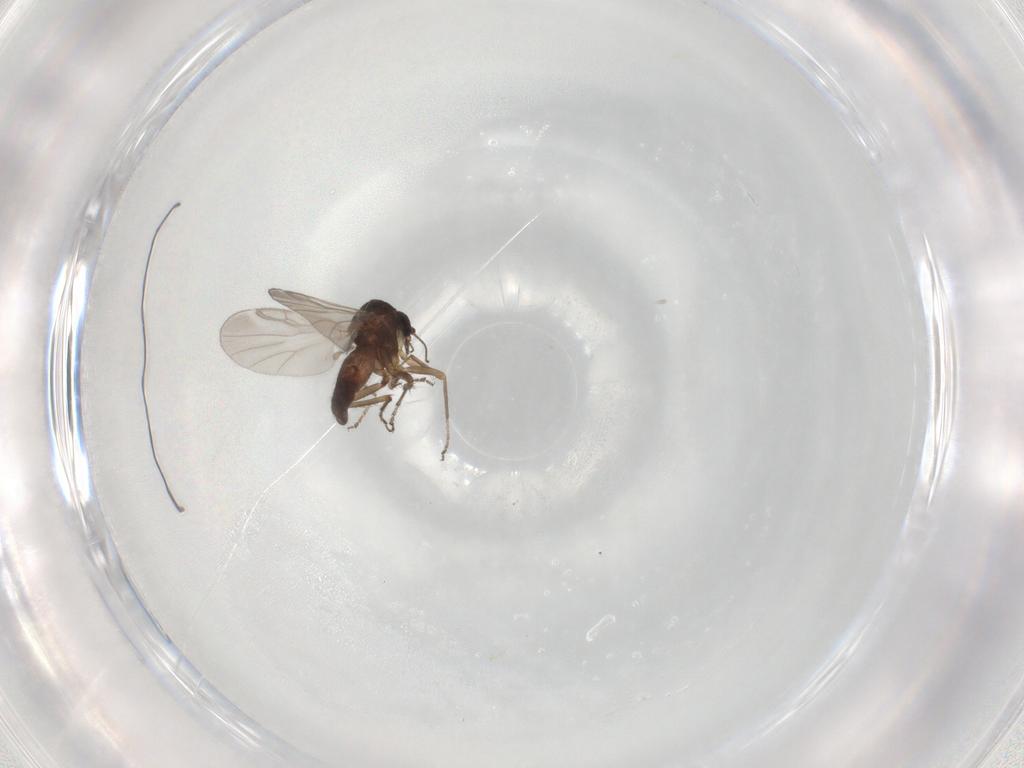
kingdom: Animalia
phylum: Arthropoda
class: Insecta
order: Diptera
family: Ceratopogonidae
